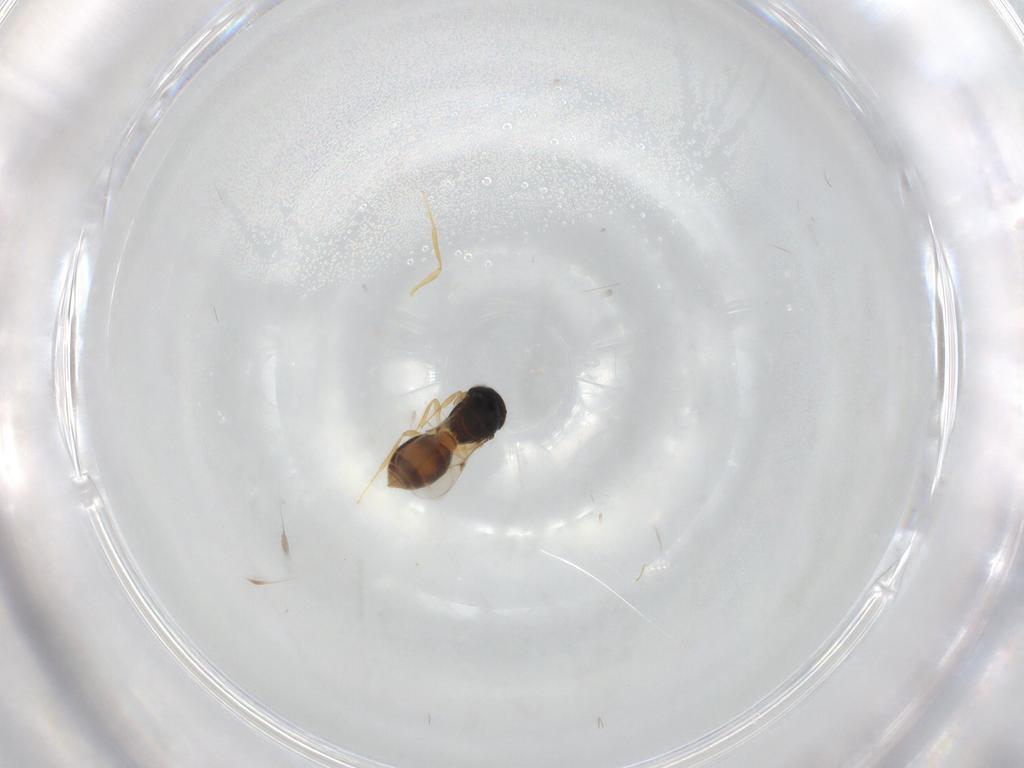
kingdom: Animalia
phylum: Arthropoda
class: Insecta
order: Hymenoptera
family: Scelionidae
